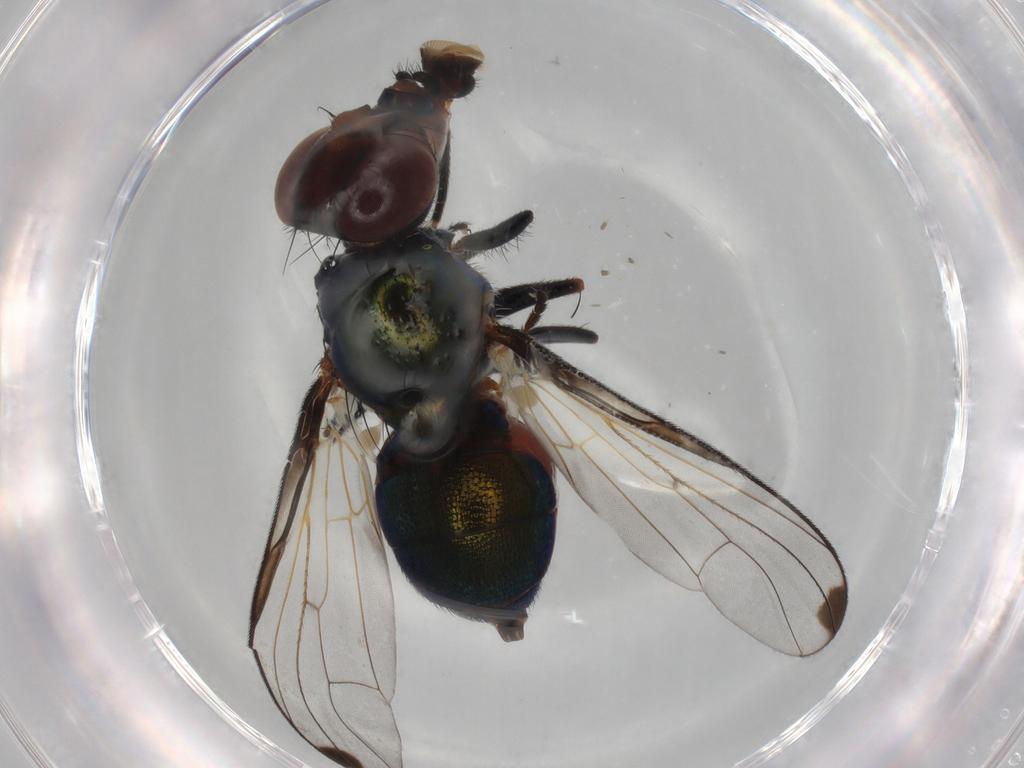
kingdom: Animalia
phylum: Arthropoda
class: Insecta
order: Diptera
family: Platystomatidae
